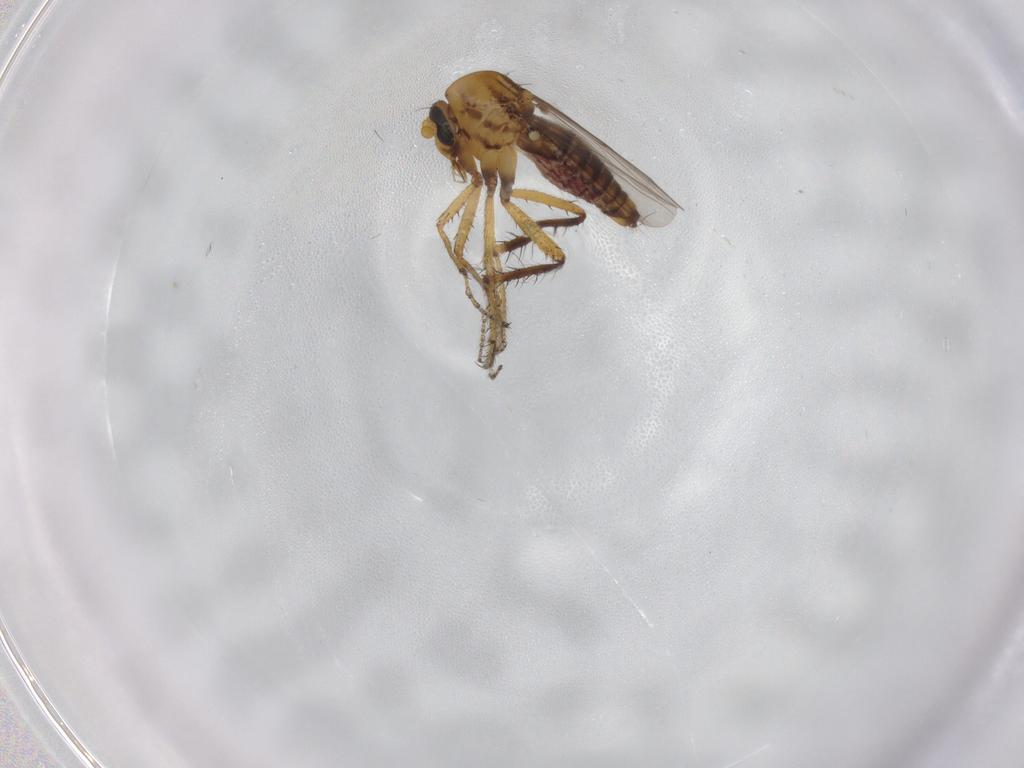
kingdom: Animalia
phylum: Arthropoda
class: Insecta
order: Diptera
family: Ceratopogonidae
